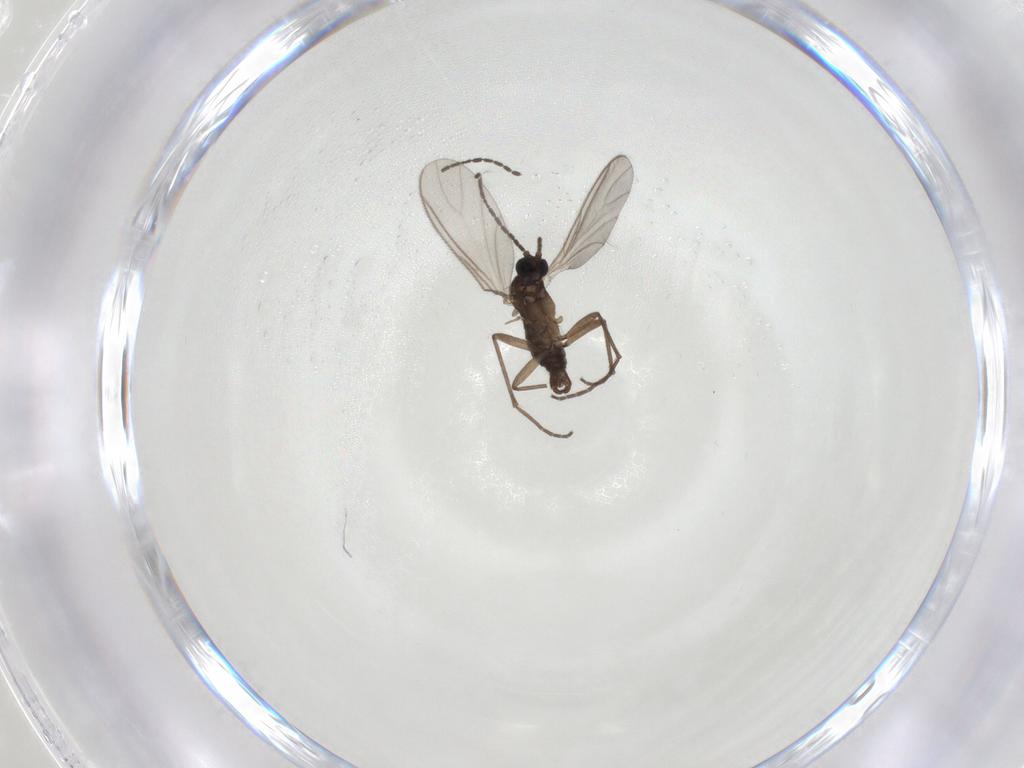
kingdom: Animalia
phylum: Arthropoda
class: Insecta
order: Diptera
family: Sciaridae
